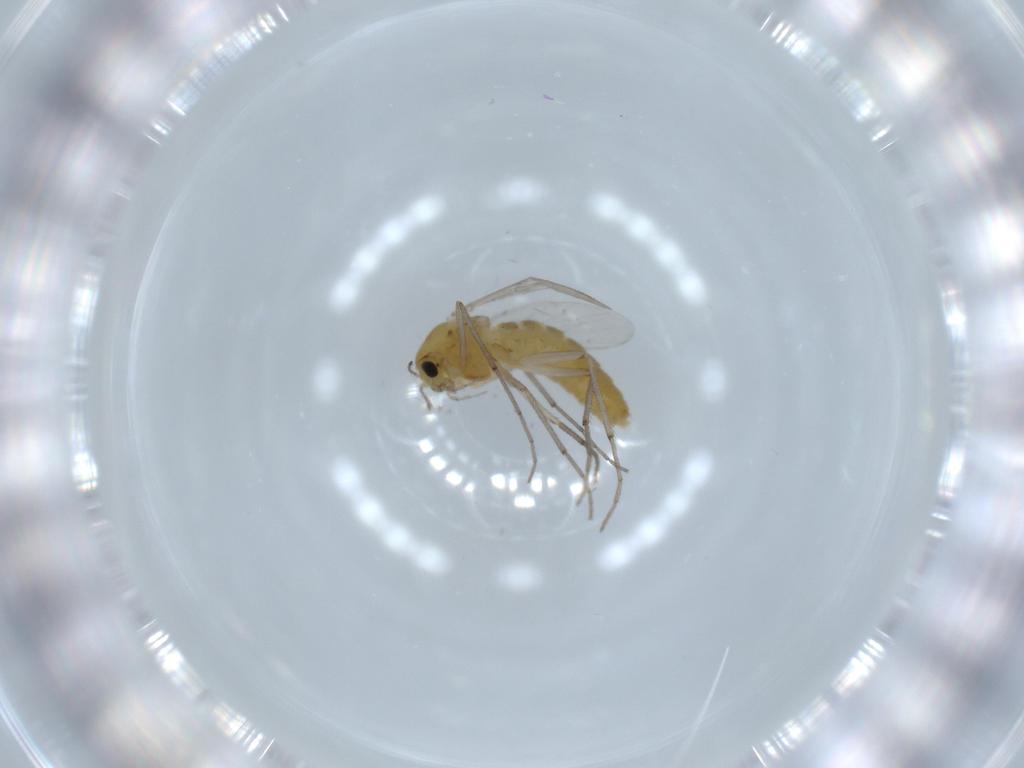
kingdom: Animalia
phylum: Arthropoda
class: Insecta
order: Diptera
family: Chironomidae
